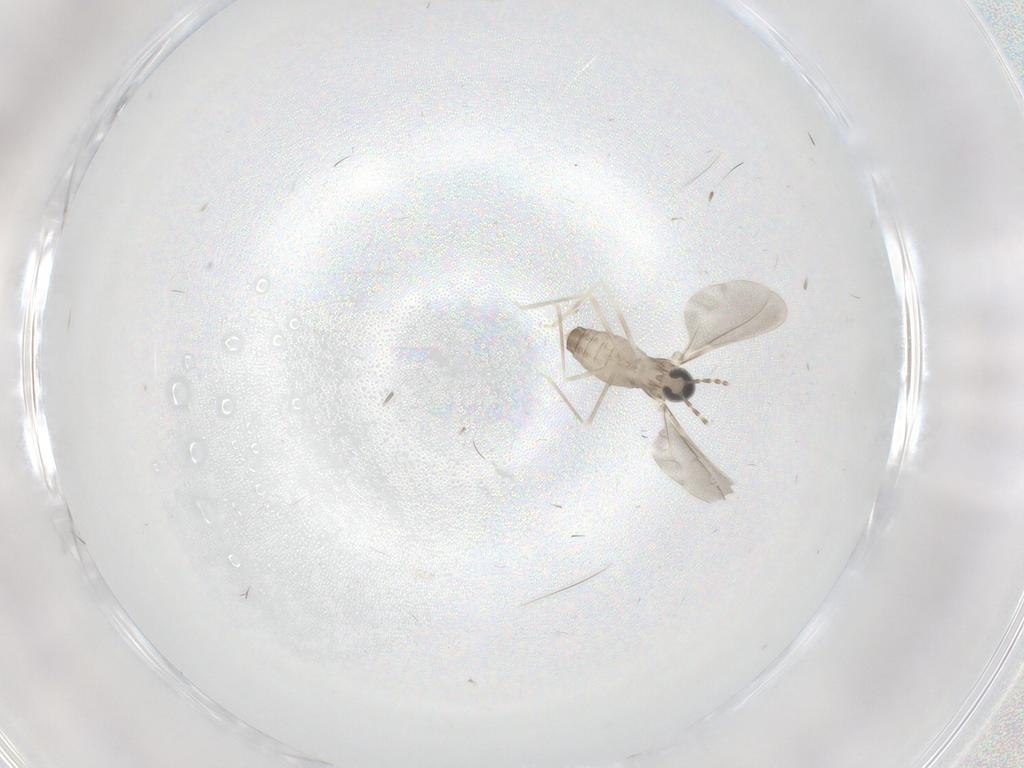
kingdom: Animalia
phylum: Arthropoda
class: Insecta
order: Diptera
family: Cecidomyiidae
